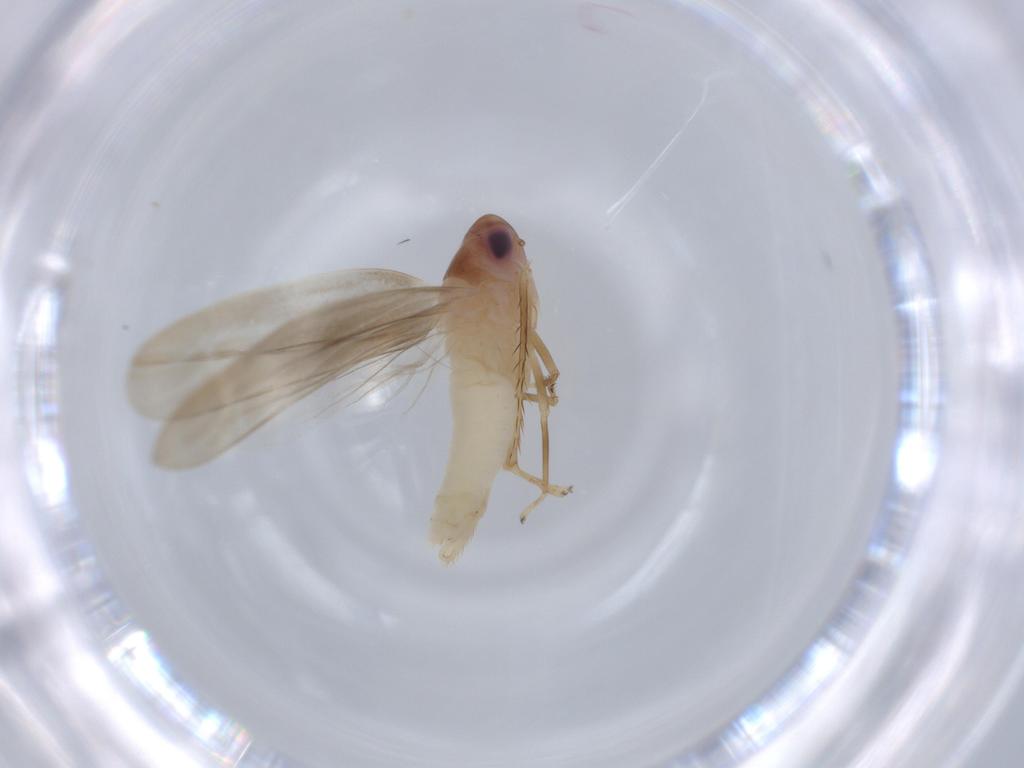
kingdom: Animalia
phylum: Arthropoda
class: Insecta
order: Hemiptera
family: Cicadellidae
